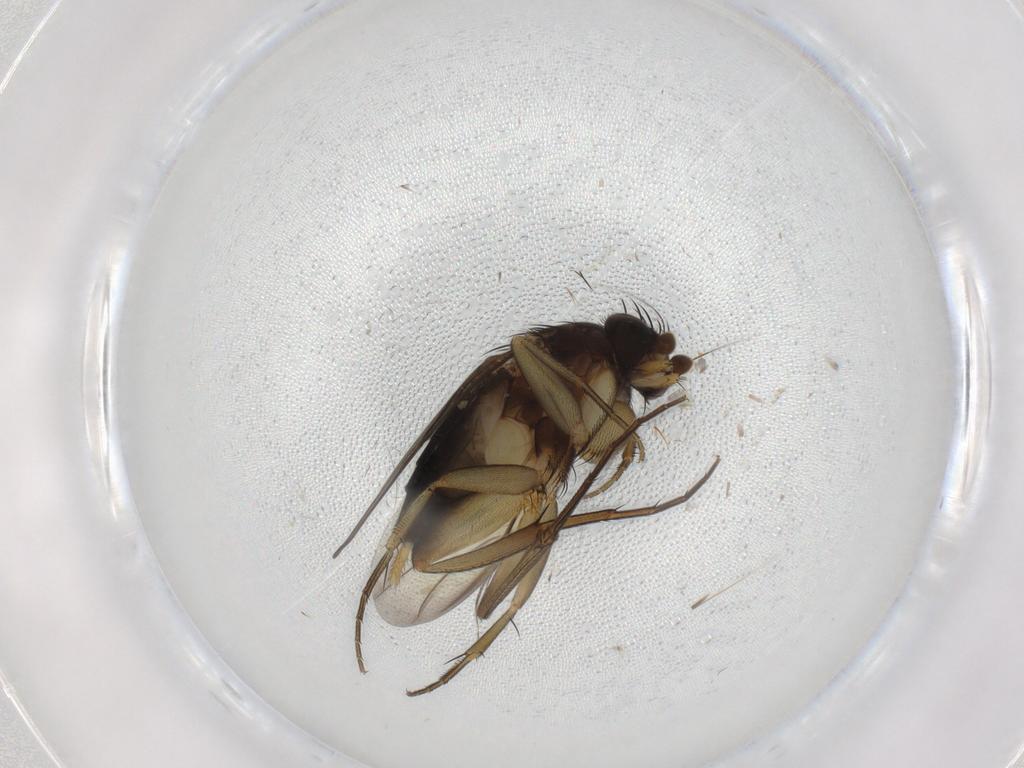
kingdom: Animalia
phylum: Arthropoda
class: Insecta
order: Diptera
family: Phoridae
